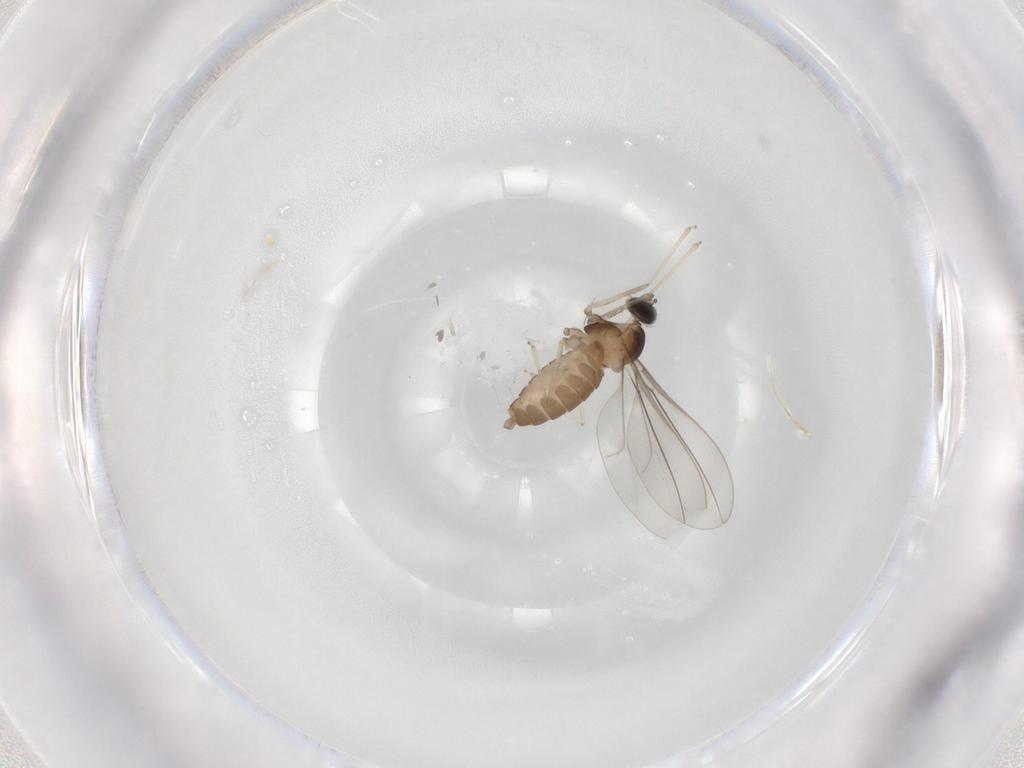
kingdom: Animalia
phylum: Arthropoda
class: Insecta
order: Diptera
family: Cecidomyiidae
